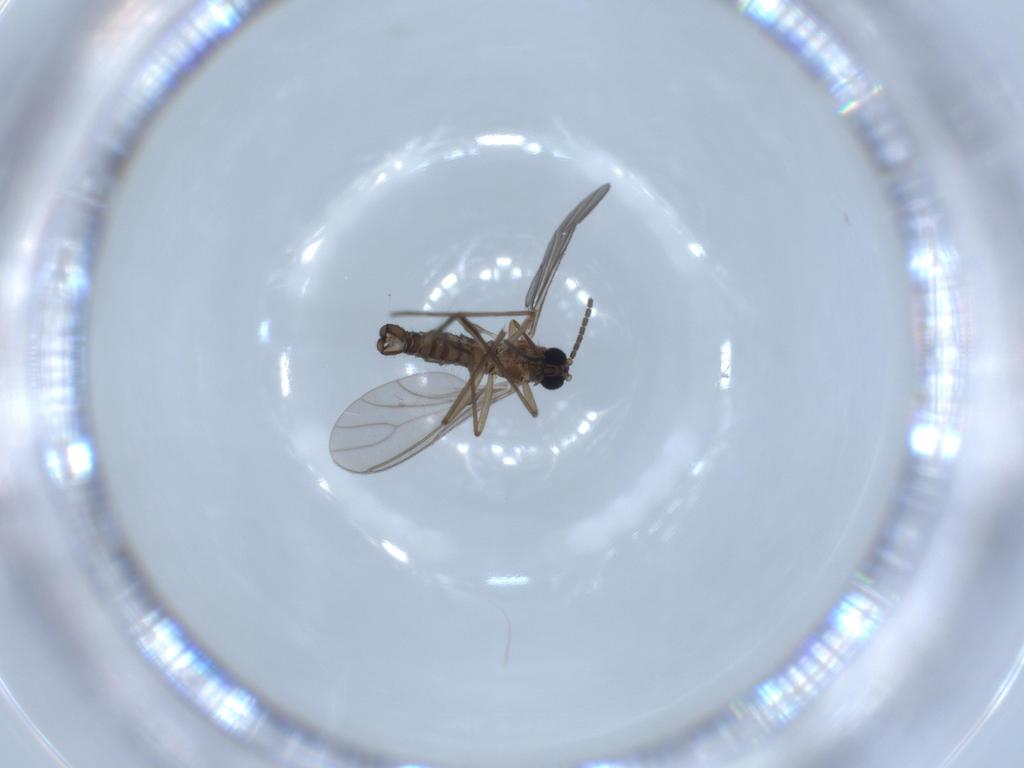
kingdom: Animalia
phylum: Arthropoda
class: Insecta
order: Diptera
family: Sciaridae
